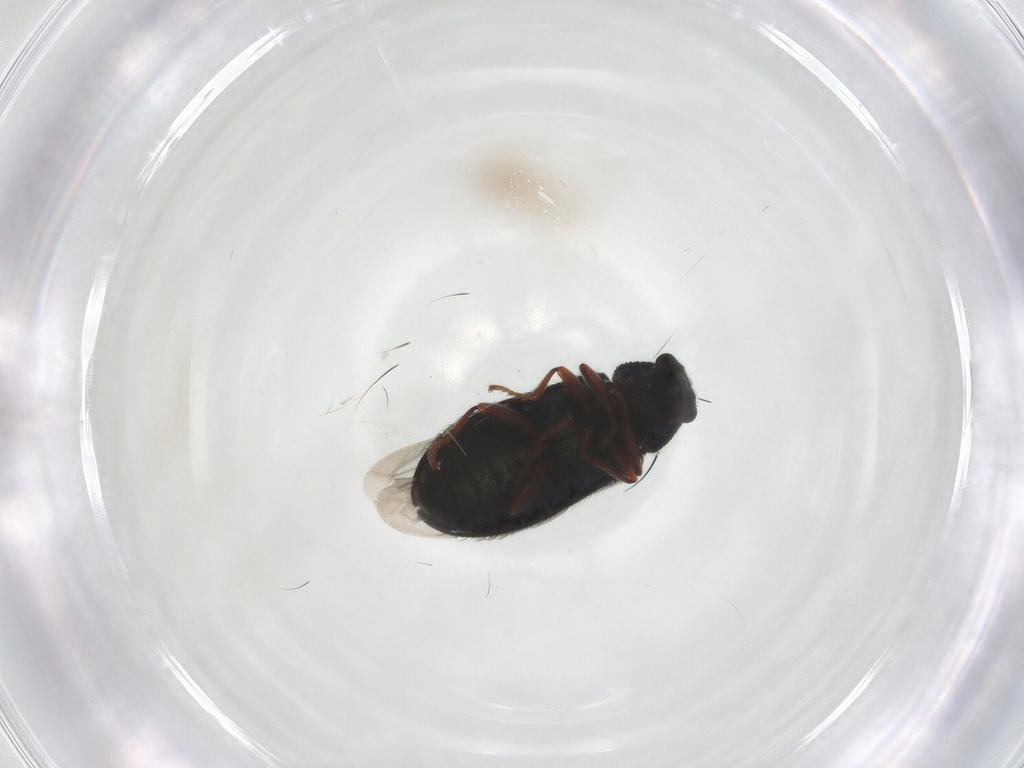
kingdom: Animalia
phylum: Arthropoda
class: Insecta
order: Coleoptera
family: Melyridae
